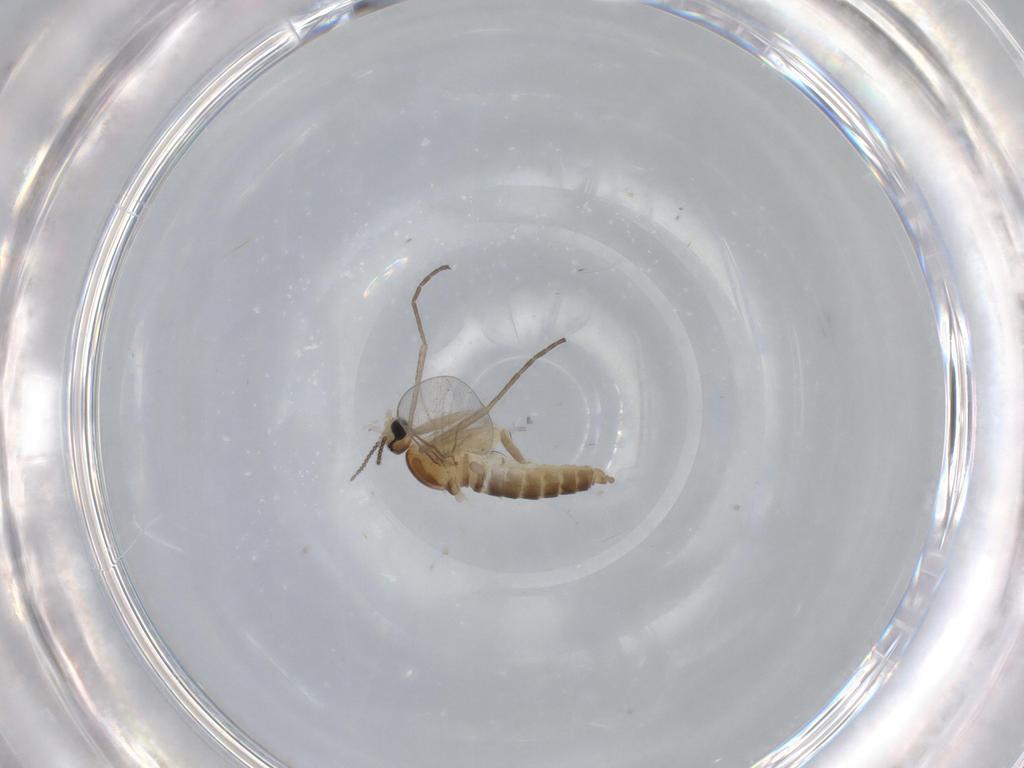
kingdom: Animalia
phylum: Arthropoda
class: Insecta
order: Diptera
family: Cecidomyiidae
